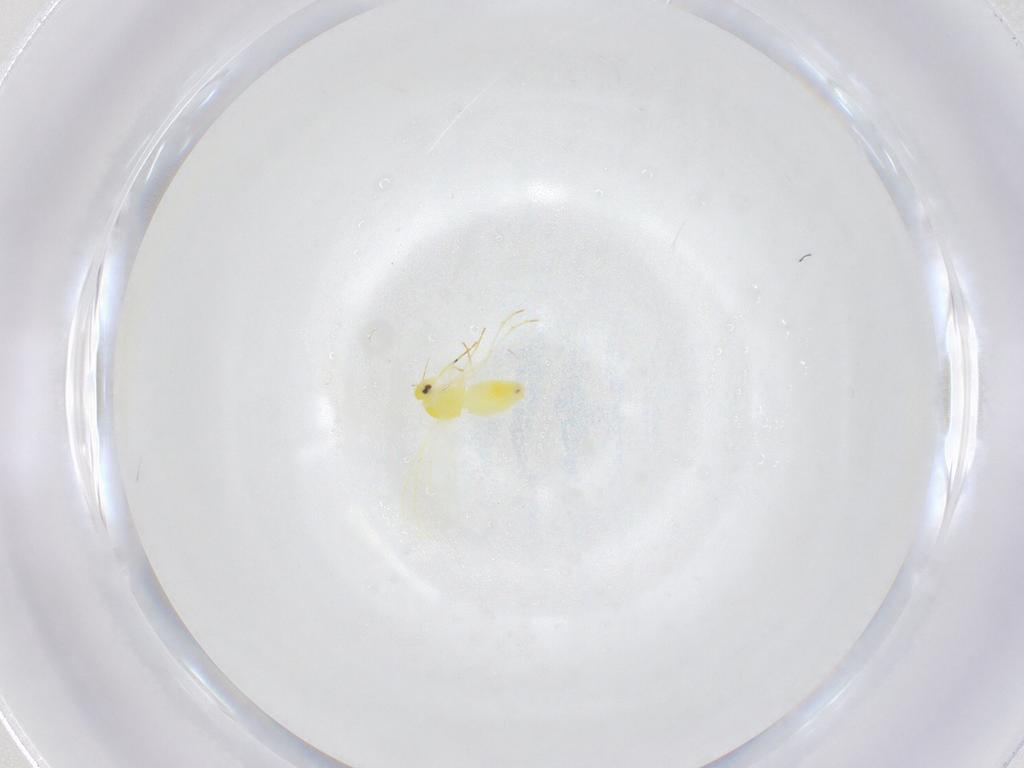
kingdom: Animalia
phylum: Arthropoda
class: Insecta
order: Hemiptera
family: Aleyrodidae
